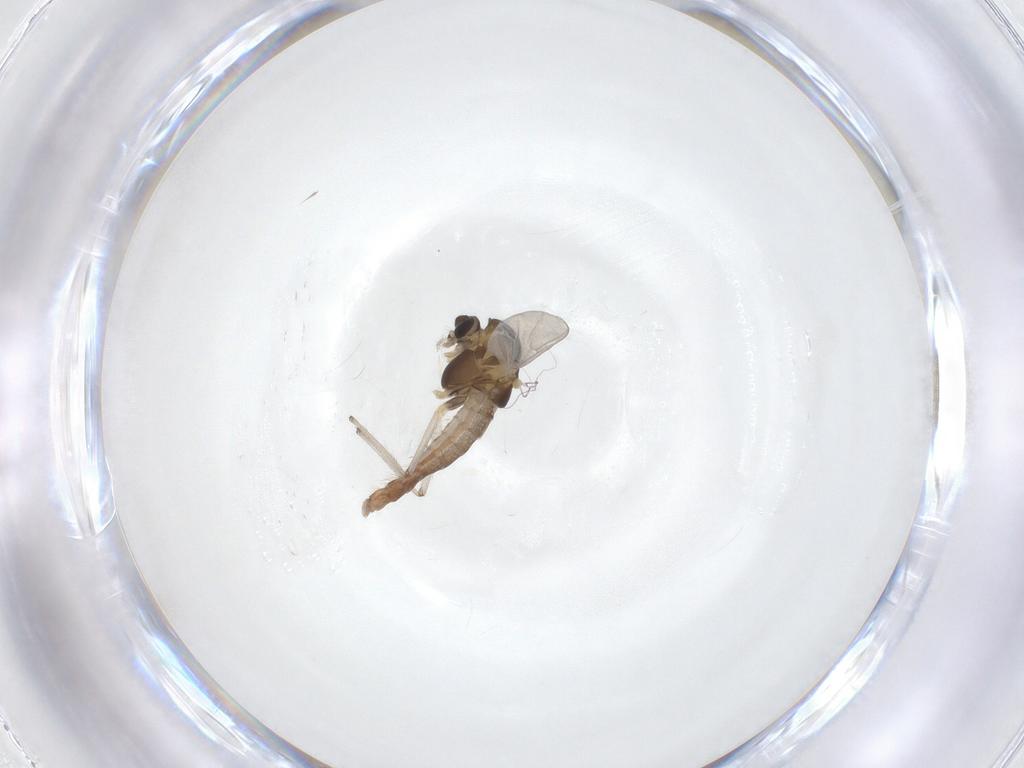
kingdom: Animalia
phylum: Arthropoda
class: Insecta
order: Diptera
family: Chironomidae
